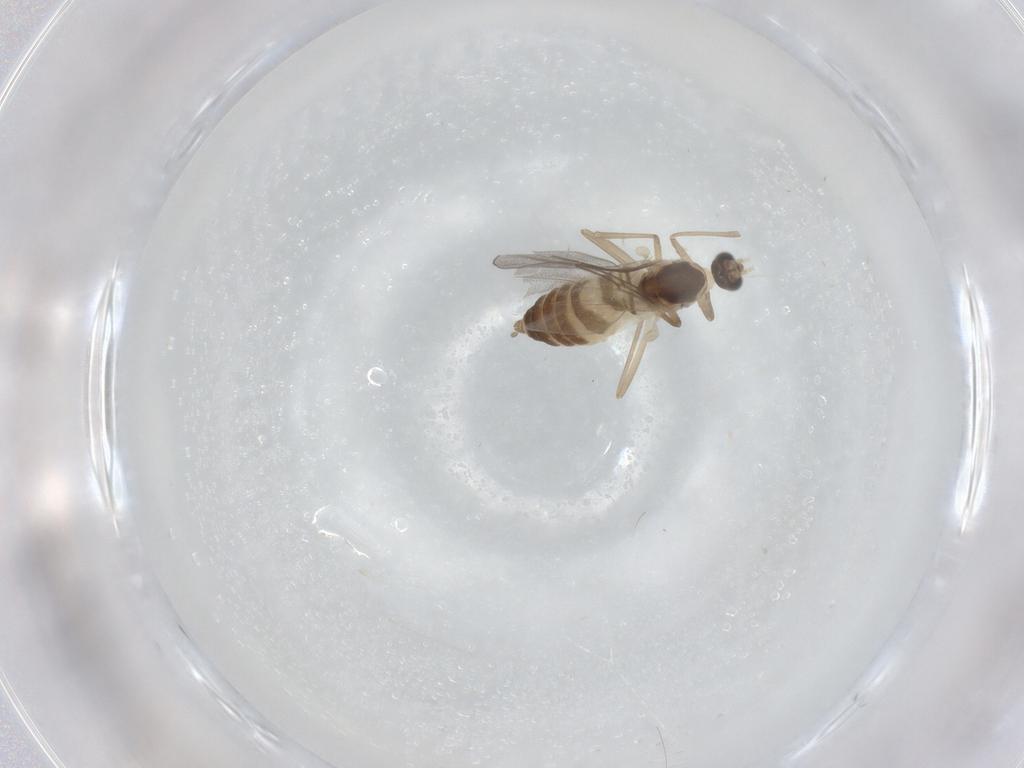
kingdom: Animalia
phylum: Arthropoda
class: Insecta
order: Diptera
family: Cecidomyiidae
